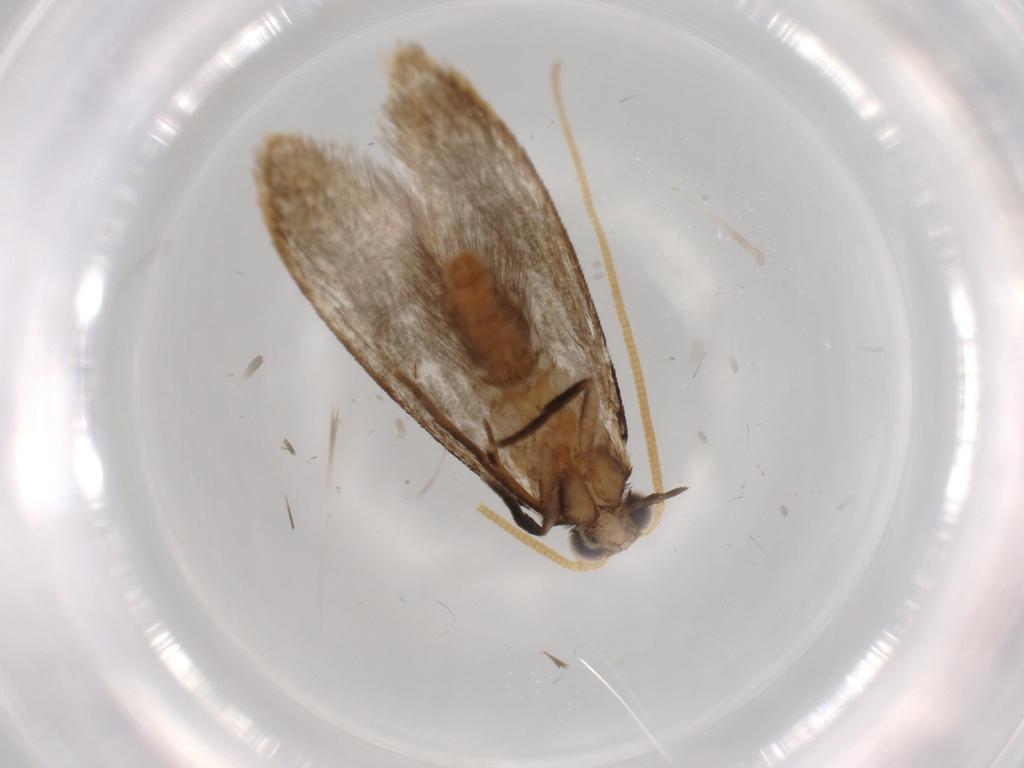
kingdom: Animalia
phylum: Arthropoda
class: Insecta
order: Lepidoptera
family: Tineidae
